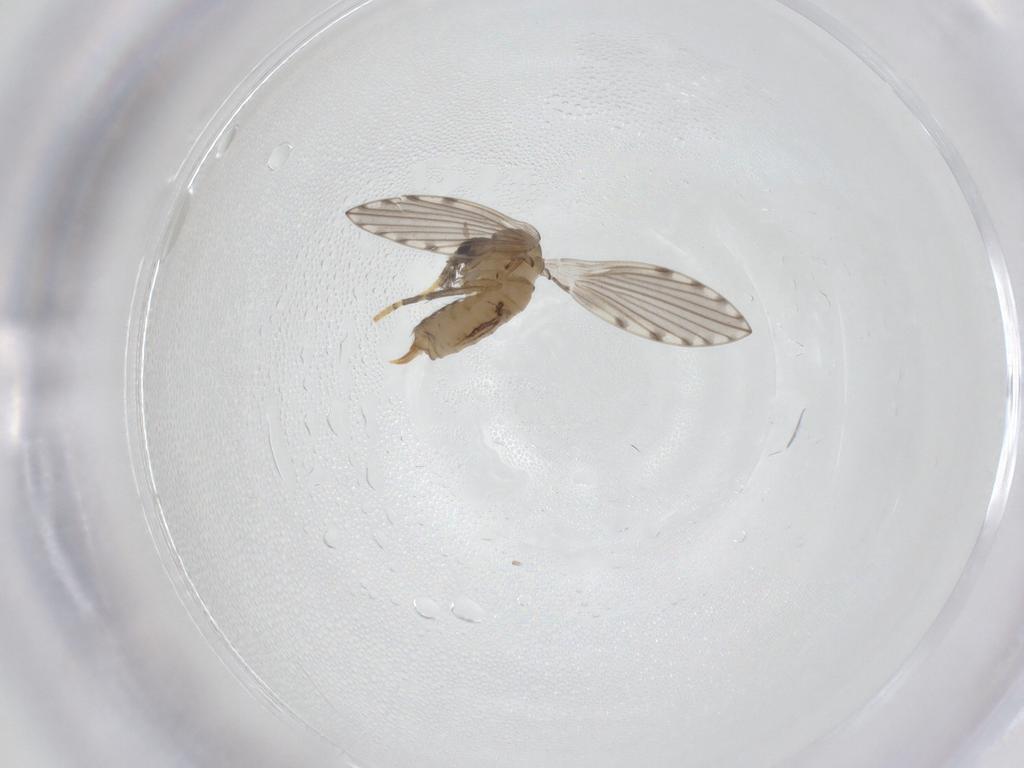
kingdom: Animalia
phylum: Arthropoda
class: Insecta
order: Diptera
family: Psychodidae
